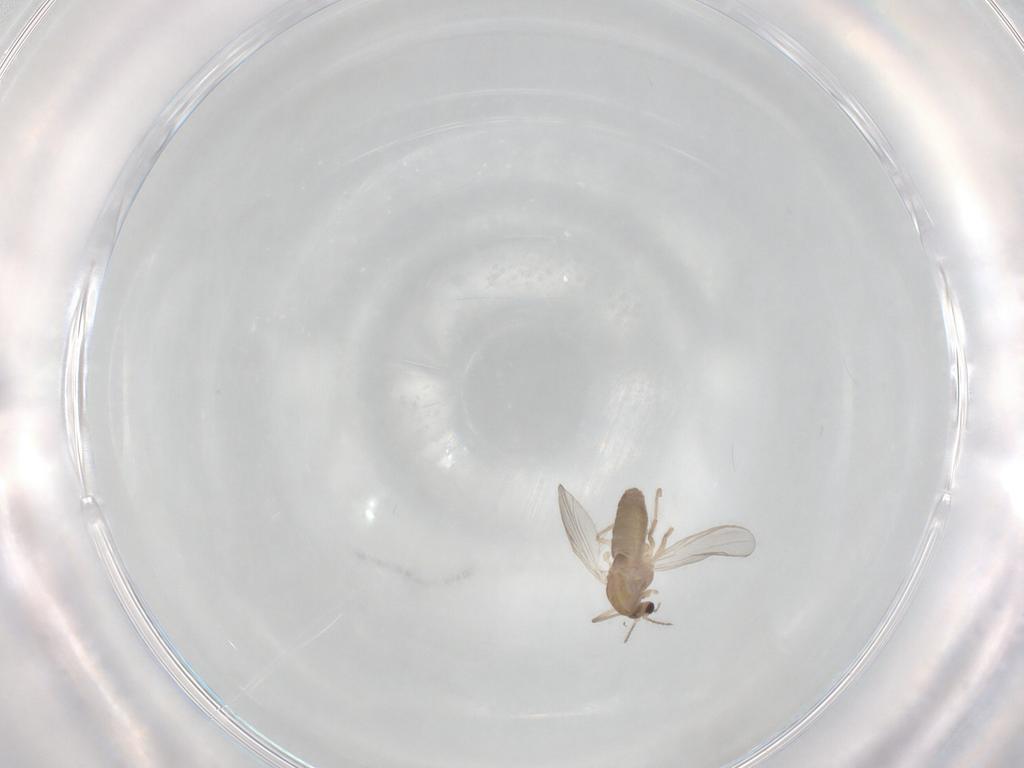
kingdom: Animalia
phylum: Arthropoda
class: Insecta
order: Diptera
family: Chironomidae
